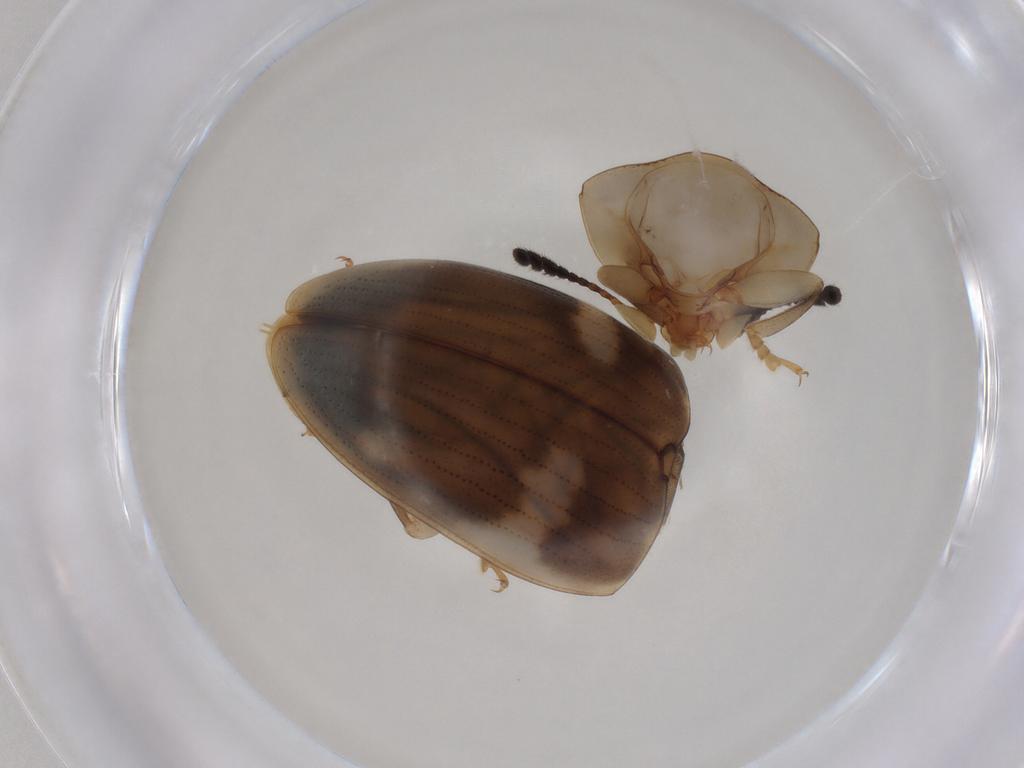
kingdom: Animalia
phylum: Arthropoda
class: Insecta
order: Coleoptera
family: Erotylidae
